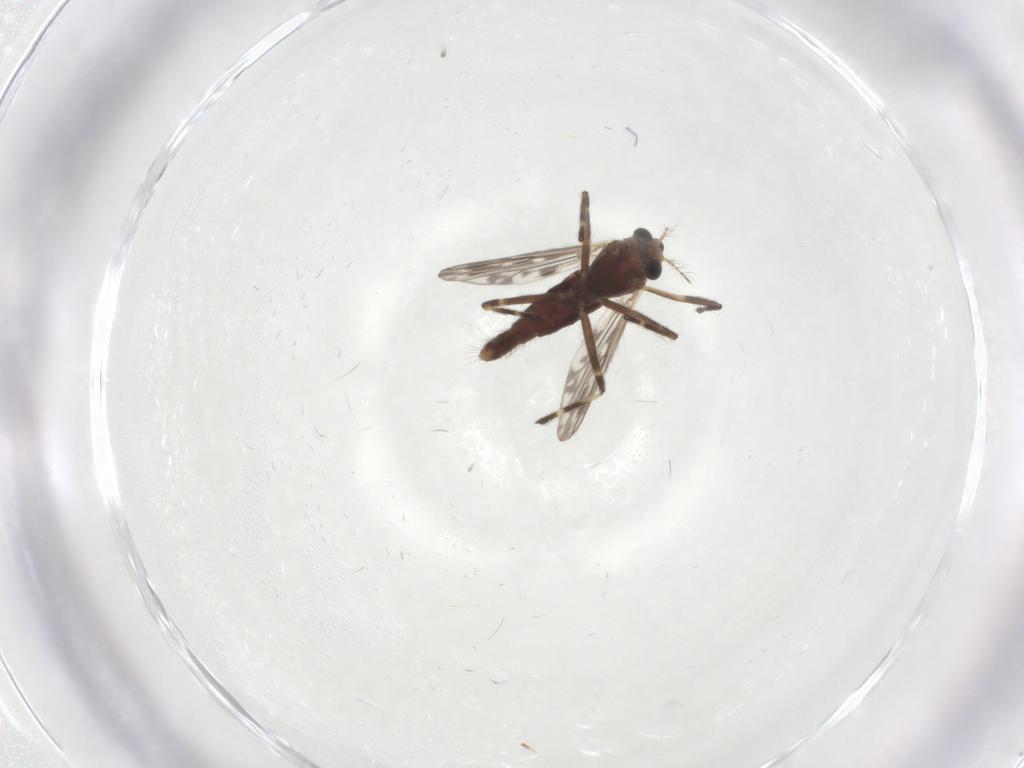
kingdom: Animalia
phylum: Arthropoda
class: Insecta
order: Diptera
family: Chironomidae
